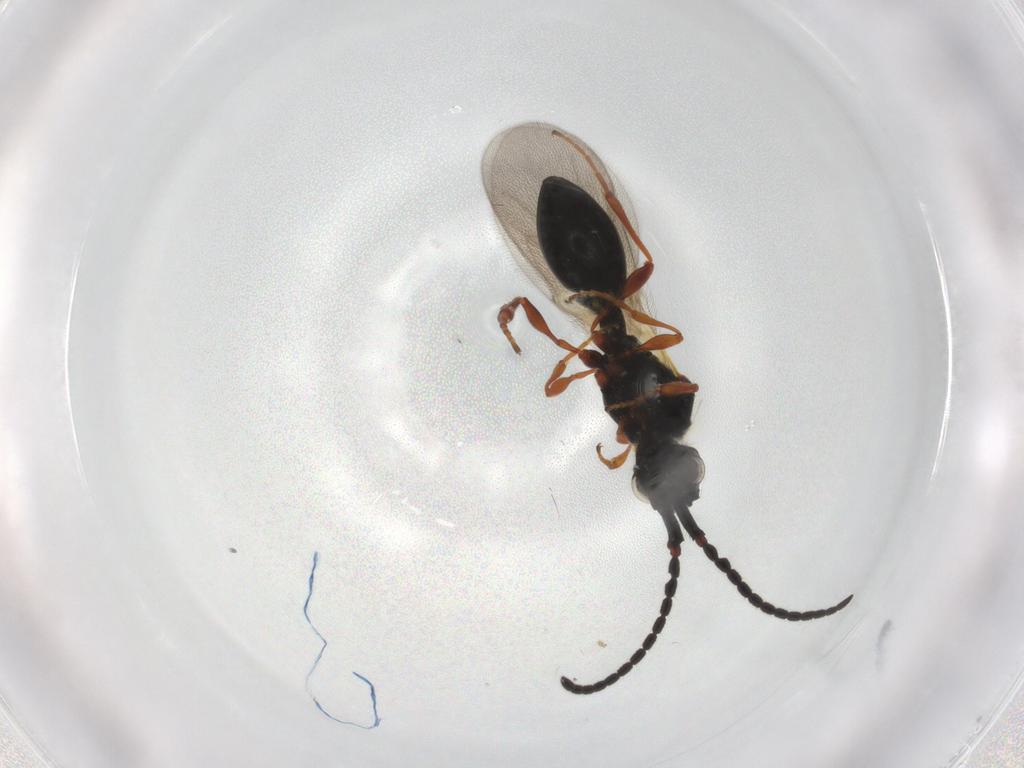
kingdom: Animalia
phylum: Arthropoda
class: Insecta
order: Hymenoptera
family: Diapriidae
